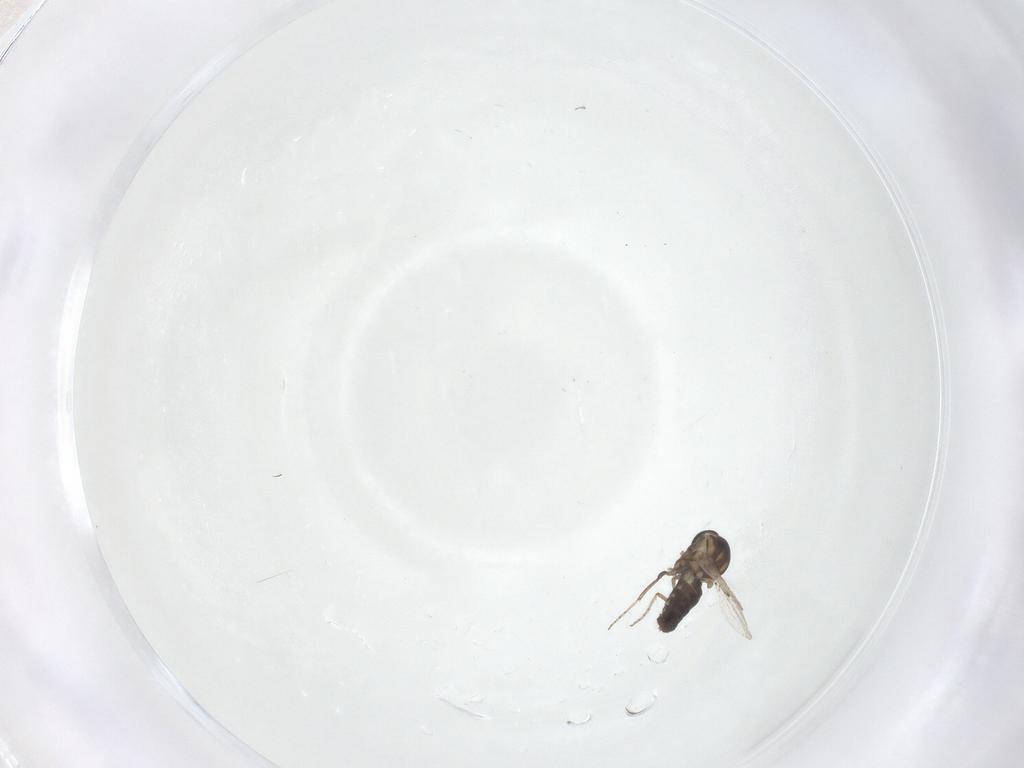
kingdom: Animalia
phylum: Arthropoda
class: Insecta
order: Diptera
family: Ceratopogonidae
